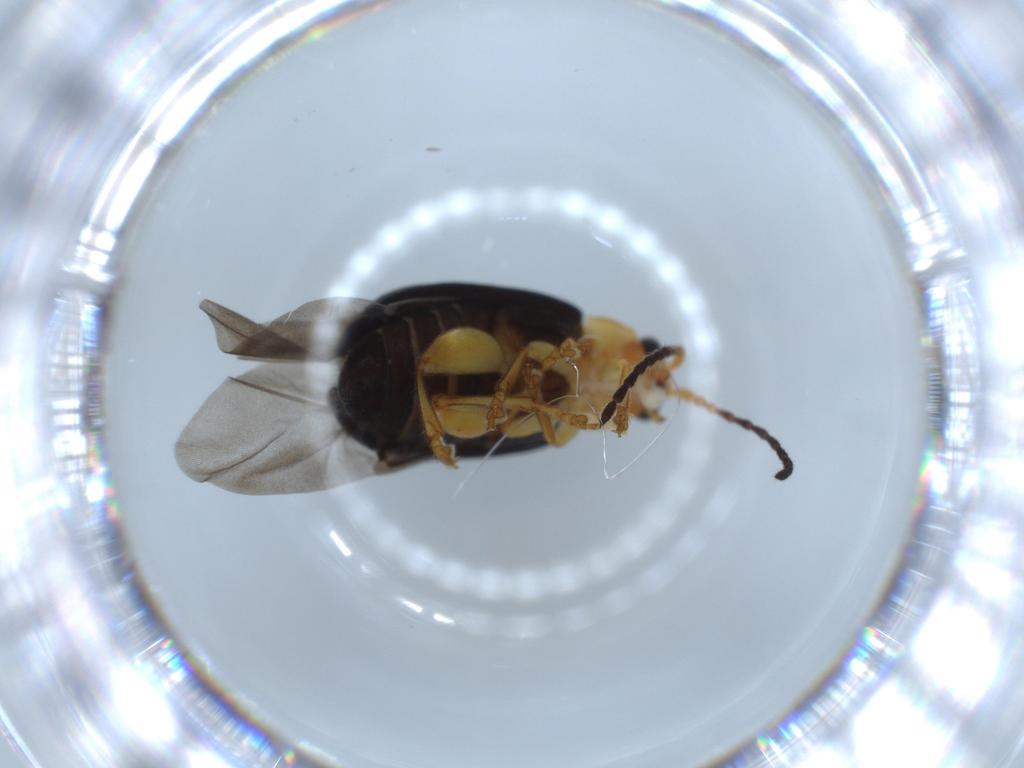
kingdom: Animalia
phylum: Arthropoda
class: Insecta
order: Coleoptera
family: Chrysomelidae
